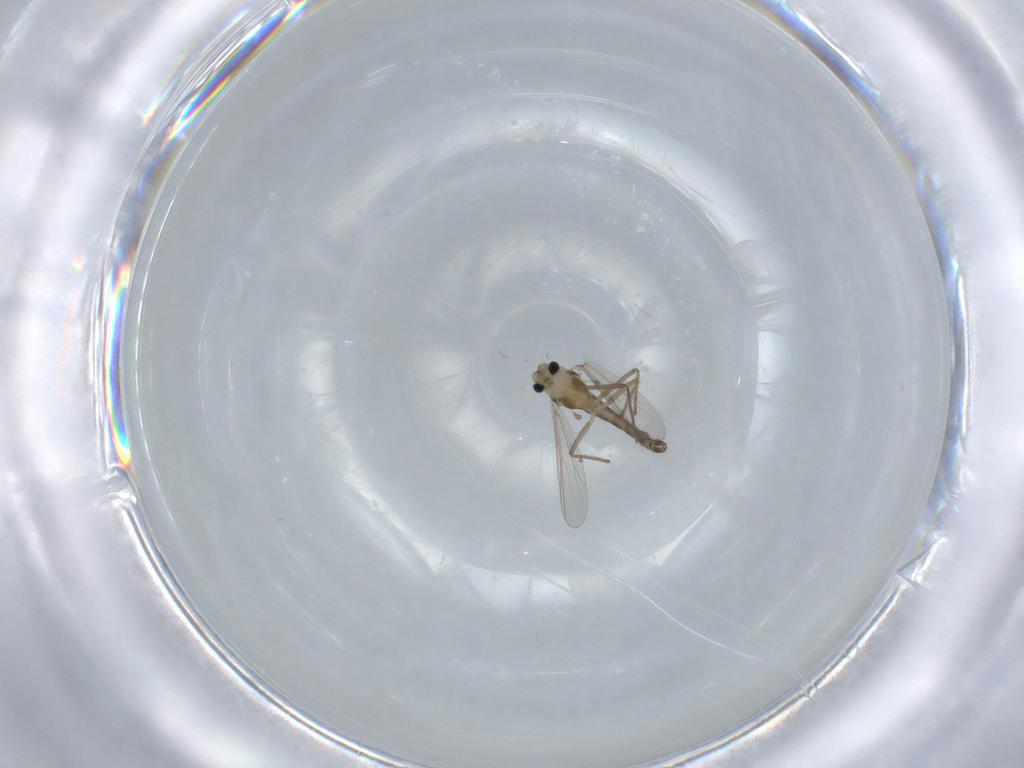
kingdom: Animalia
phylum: Arthropoda
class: Insecta
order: Diptera
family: Chironomidae
